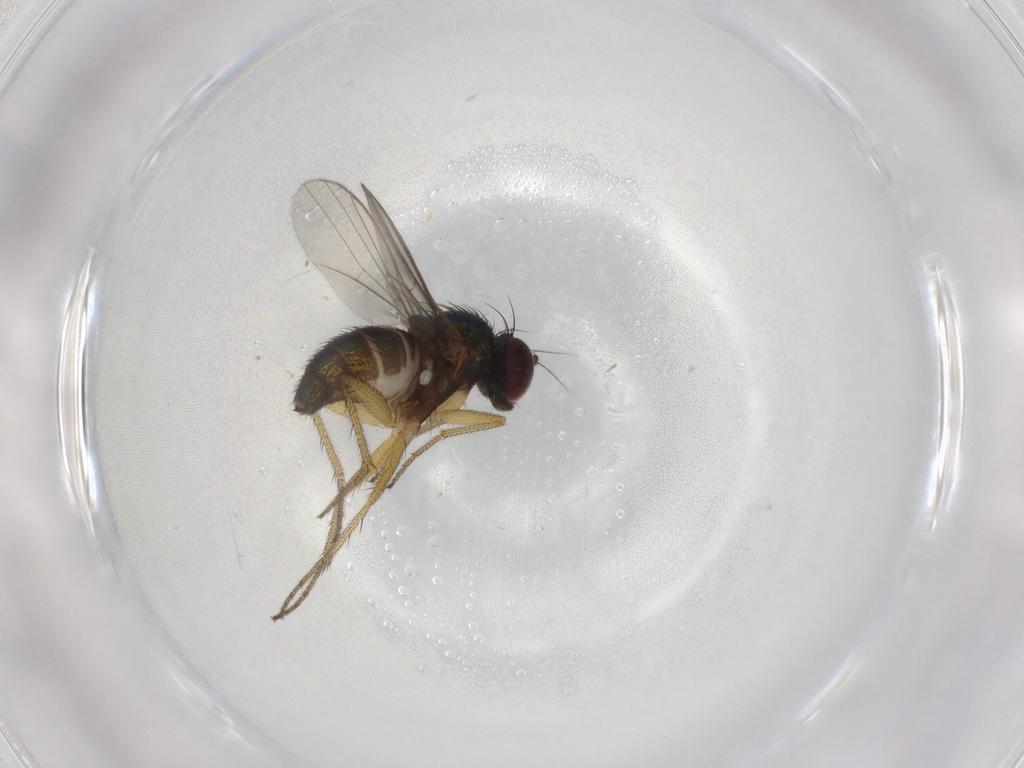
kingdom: Animalia
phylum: Arthropoda
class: Insecta
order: Diptera
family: Dolichopodidae
